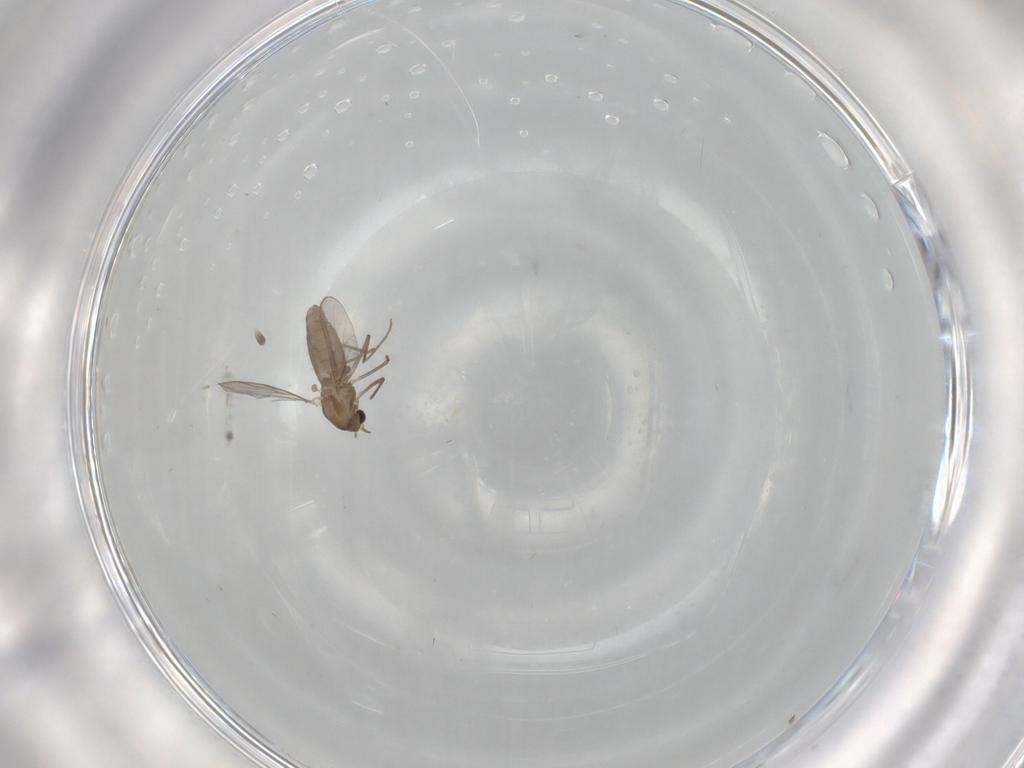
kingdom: Animalia
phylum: Arthropoda
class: Insecta
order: Diptera
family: Chironomidae
